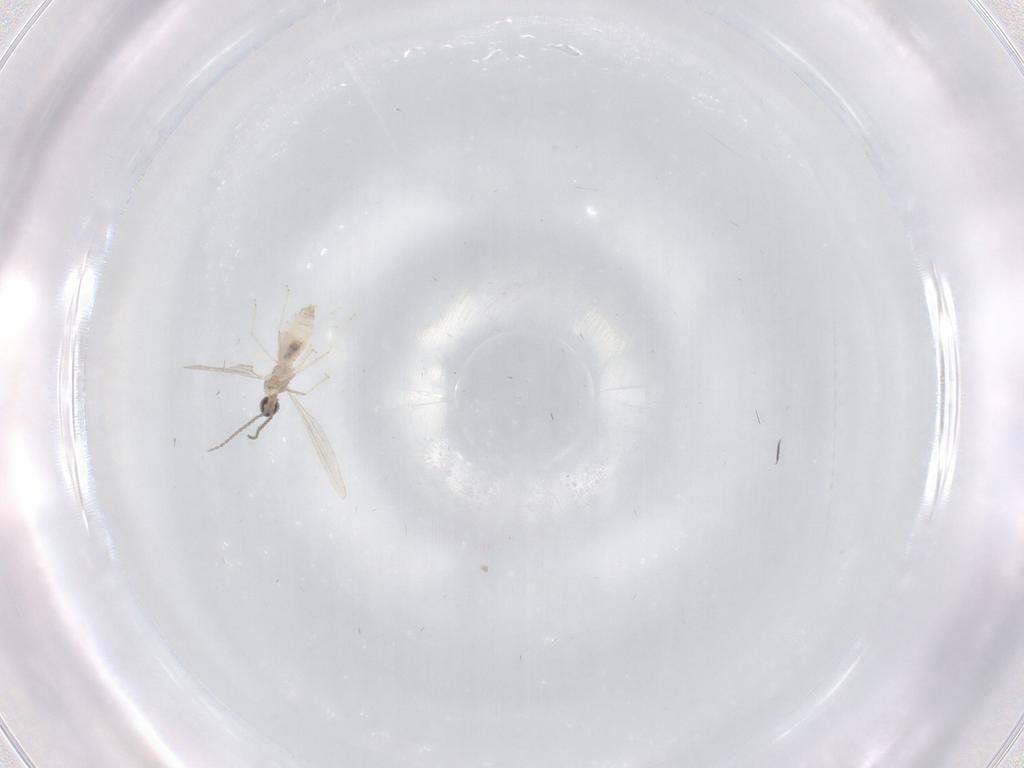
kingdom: Animalia
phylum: Arthropoda
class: Insecta
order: Diptera
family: Cecidomyiidae
